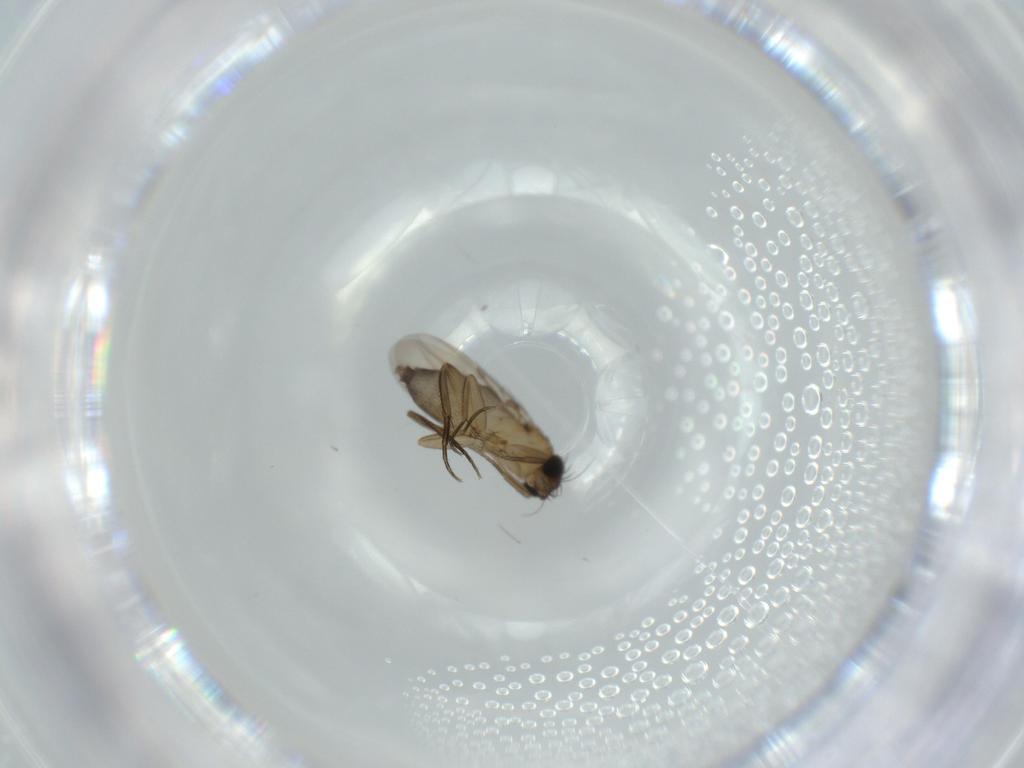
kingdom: Animalia
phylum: Arthropoda
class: Insecta
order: Diptera
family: Phoridae
